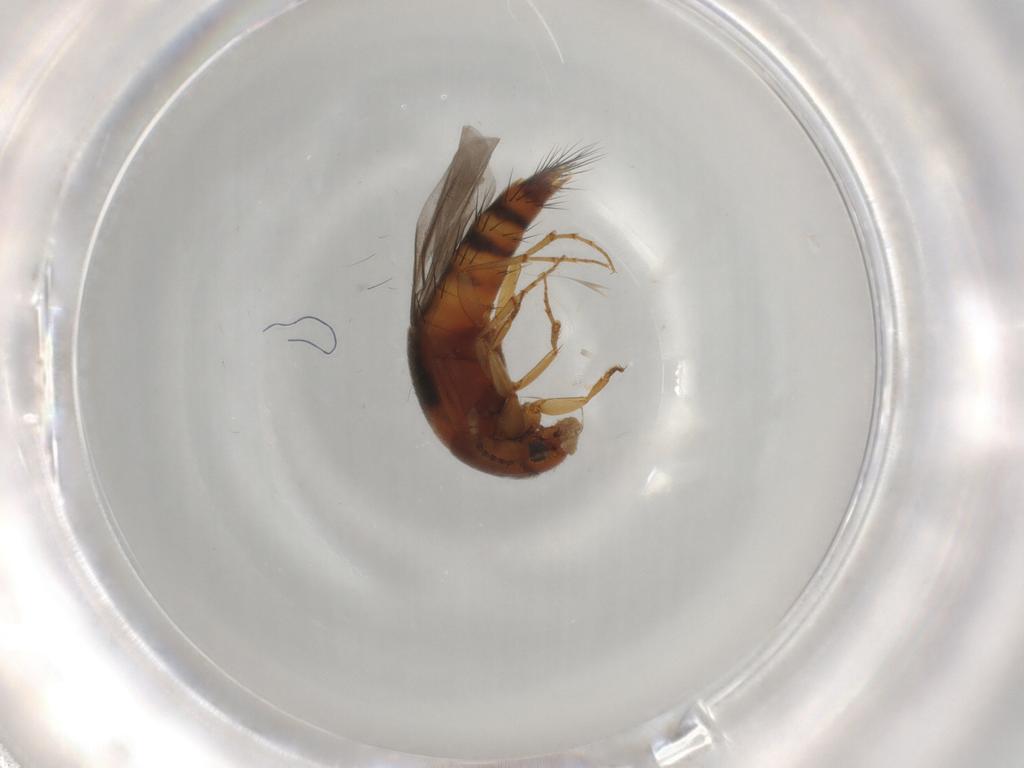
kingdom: Animalia
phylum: Arthropoda
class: Insecta
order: Coleoptera
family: Staphylinidae
